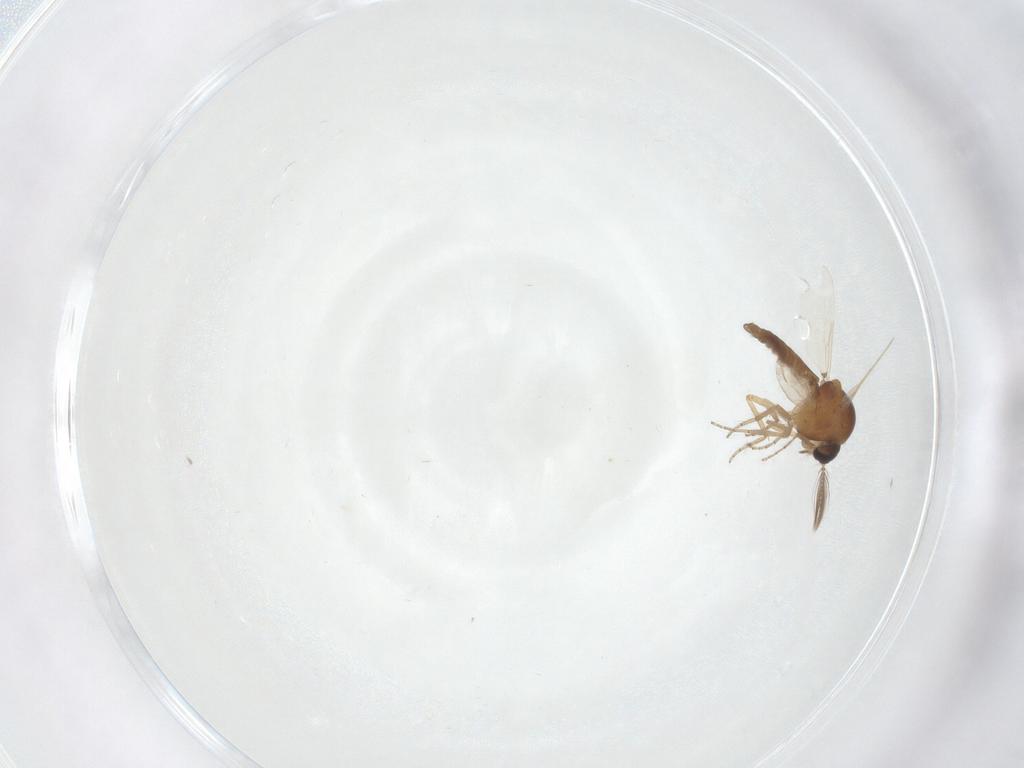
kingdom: Animalia
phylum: Arthropoda
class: Insecta
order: Diptera
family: Ceratopogonidae
